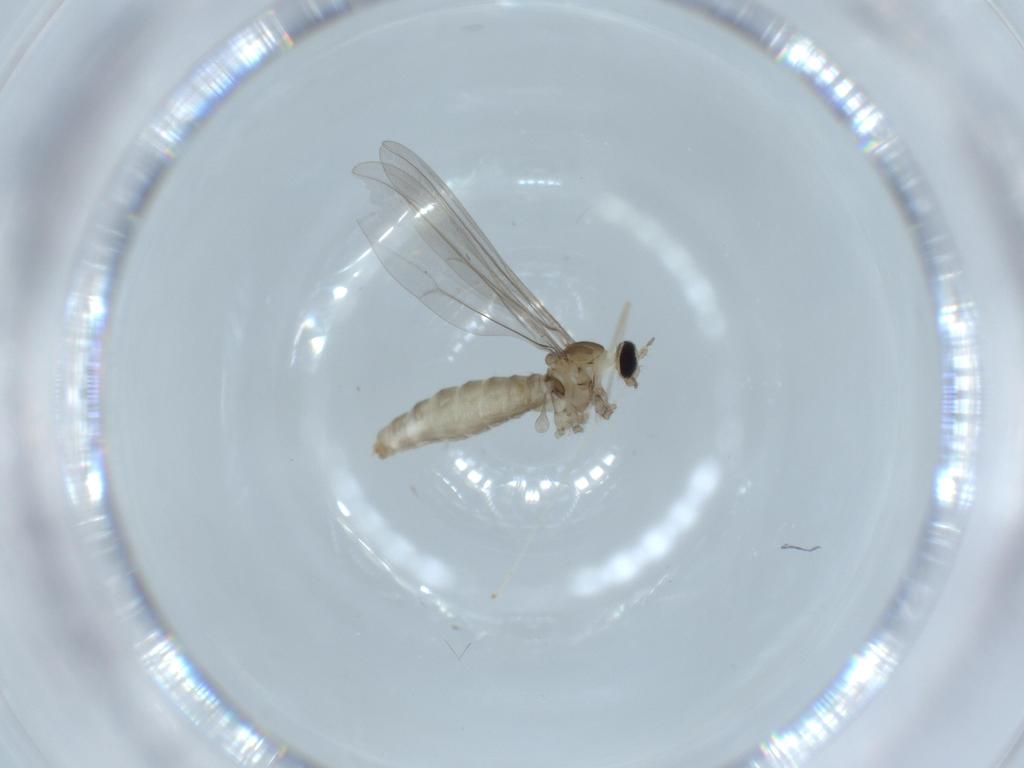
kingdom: Animalia
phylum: Arthropoda
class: Insecta
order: Diptera
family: Cecidomyiidae
